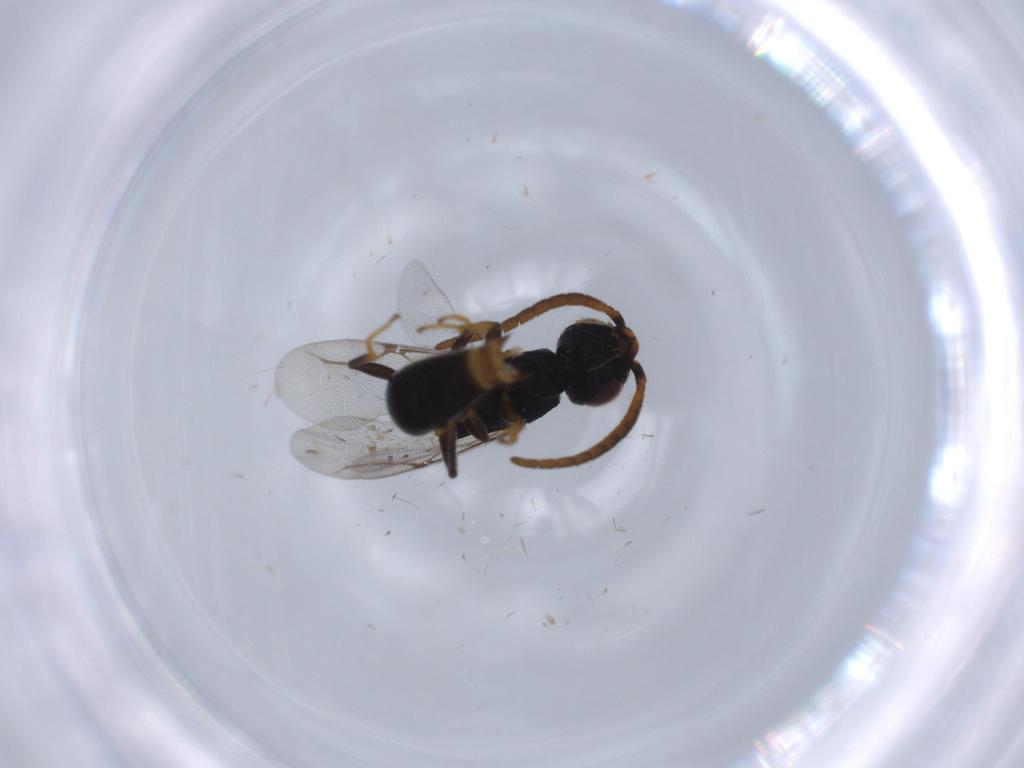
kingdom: Animalia
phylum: Arthropoda
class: Insecta
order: Hymenoptera
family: Bethylidae
